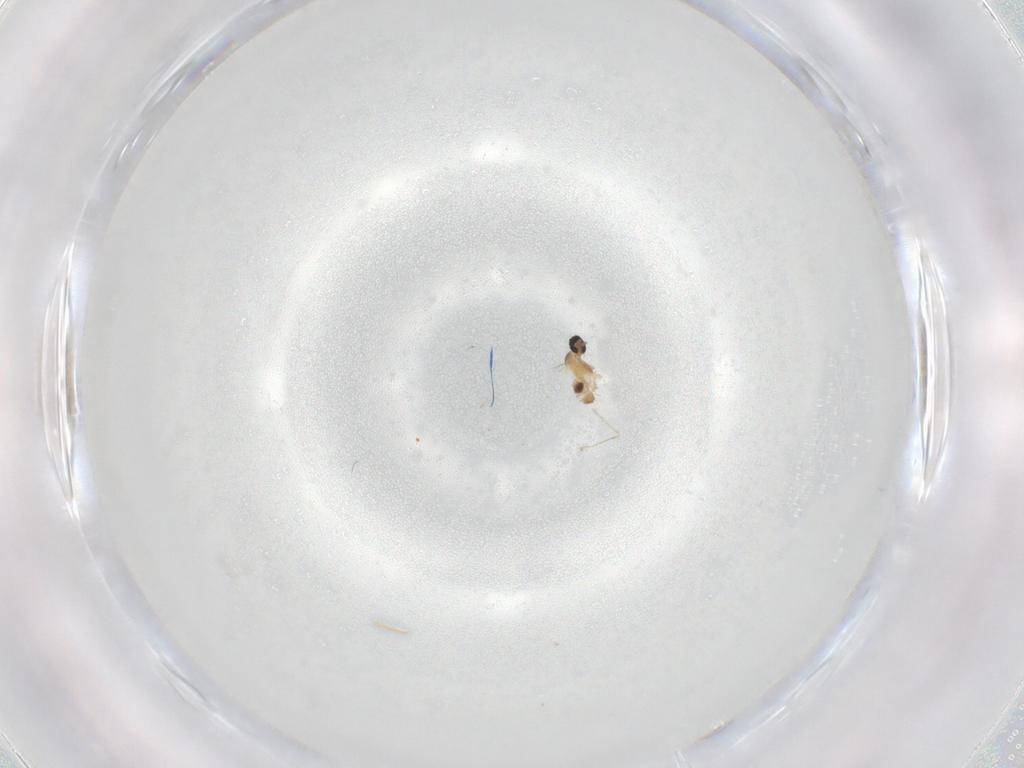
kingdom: Animalia
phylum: Arthropoda
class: Insecta
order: Diptera
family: Cecidomyiidae
